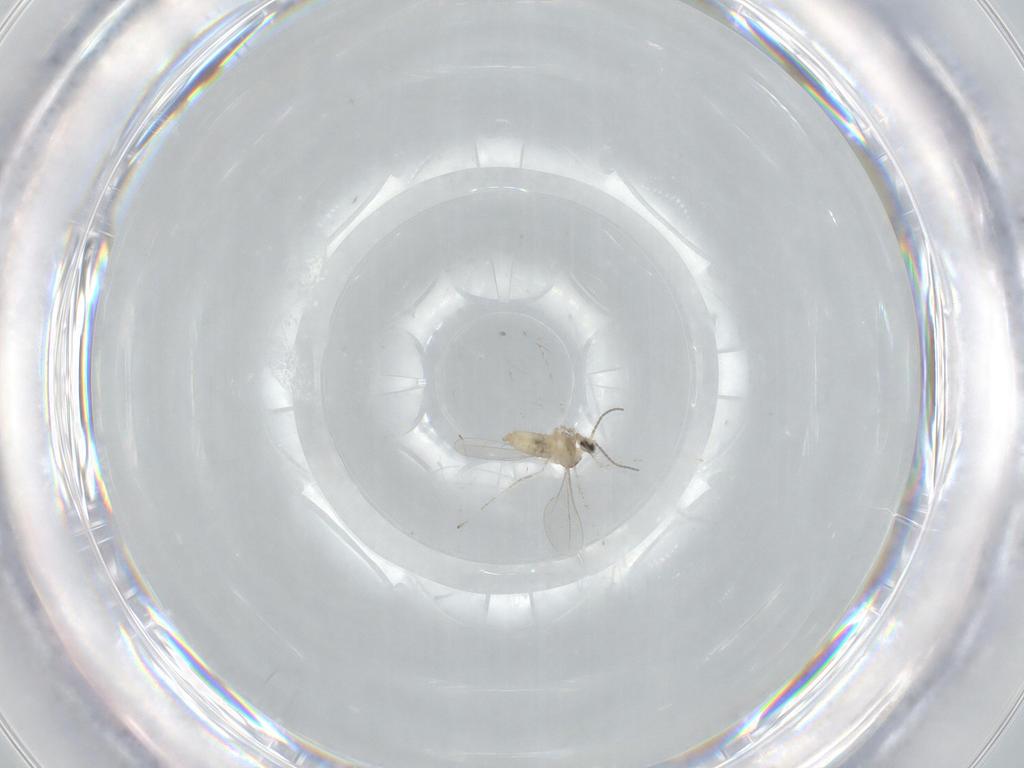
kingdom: Animalia
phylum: Arthropoda
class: Insecta
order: Diptera
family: Cecidomyiidae
